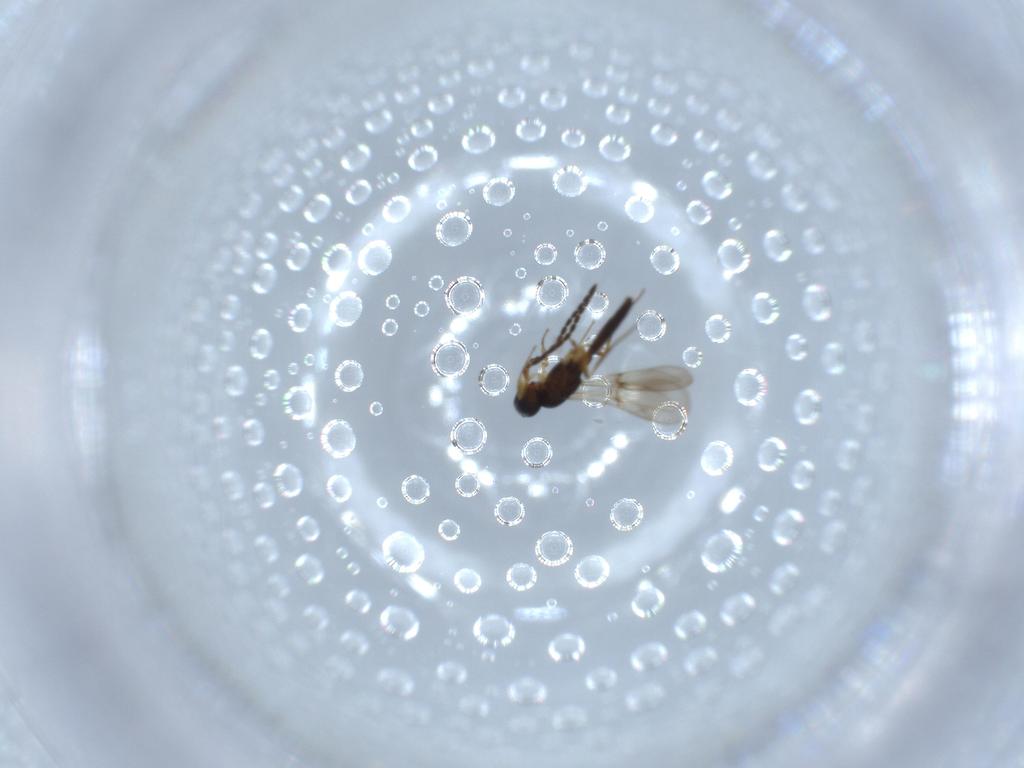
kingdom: Animalia
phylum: Arthropoda
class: Insecta
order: Hymenoptera
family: Scelionidae
